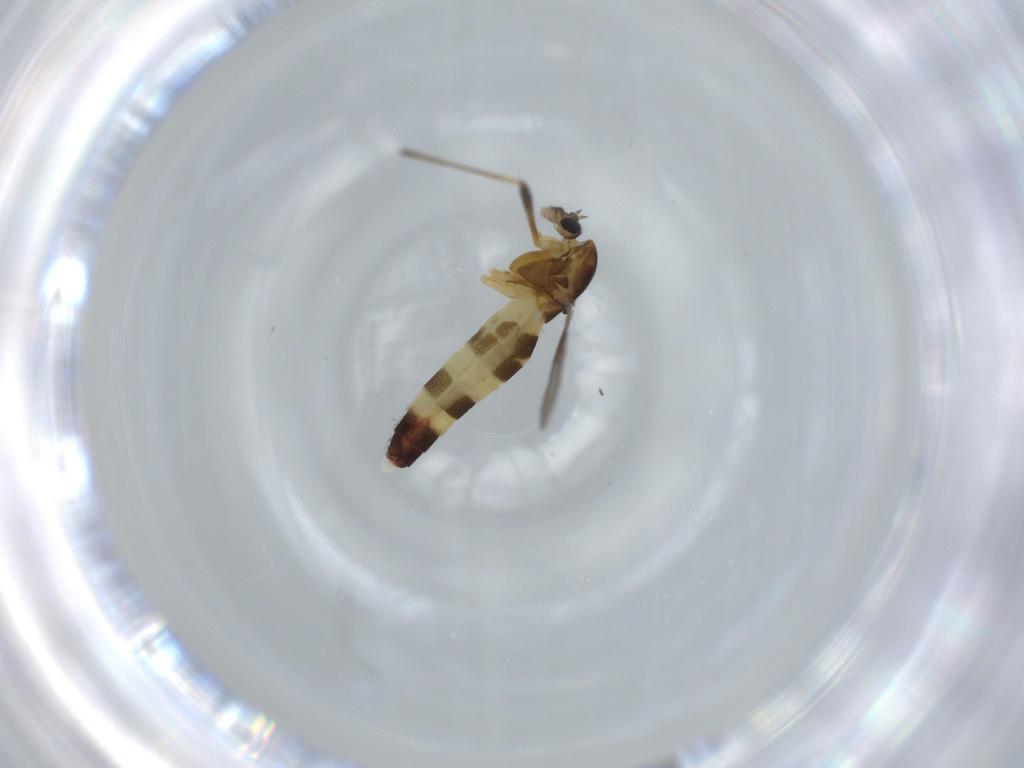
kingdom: Animalia
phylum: Arthropoda
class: Insecta
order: Diptera
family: Chironomidae
